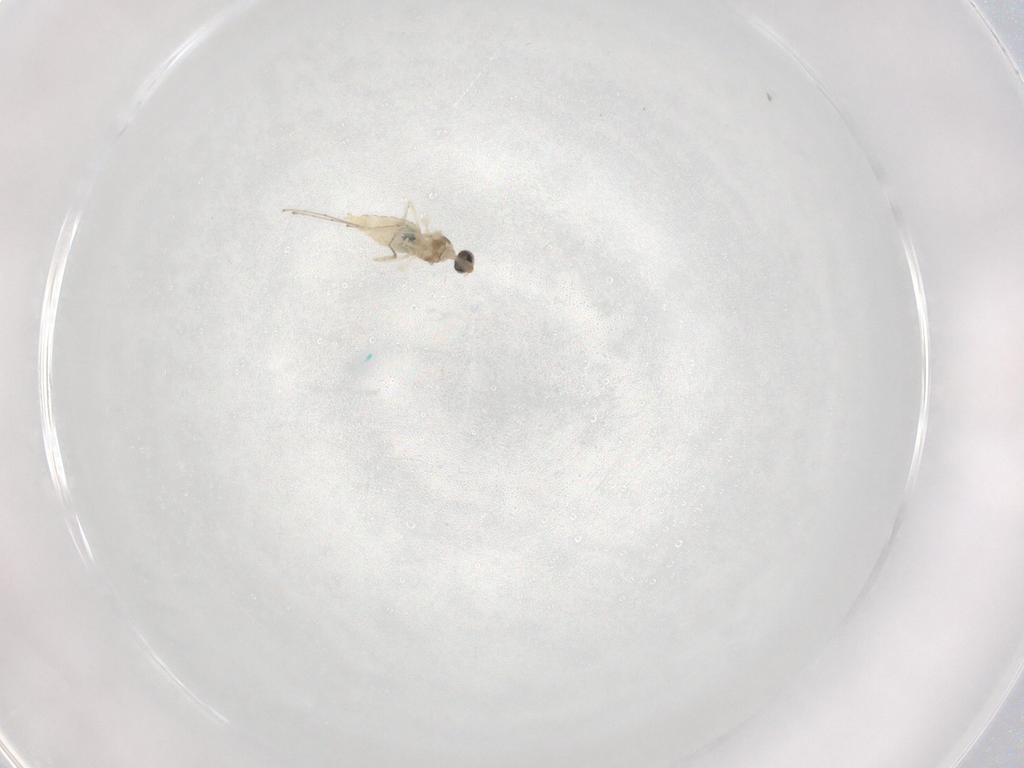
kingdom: Animalia
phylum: Arthropoda
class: Insecta
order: Diptera
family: Cecidomyiidae
